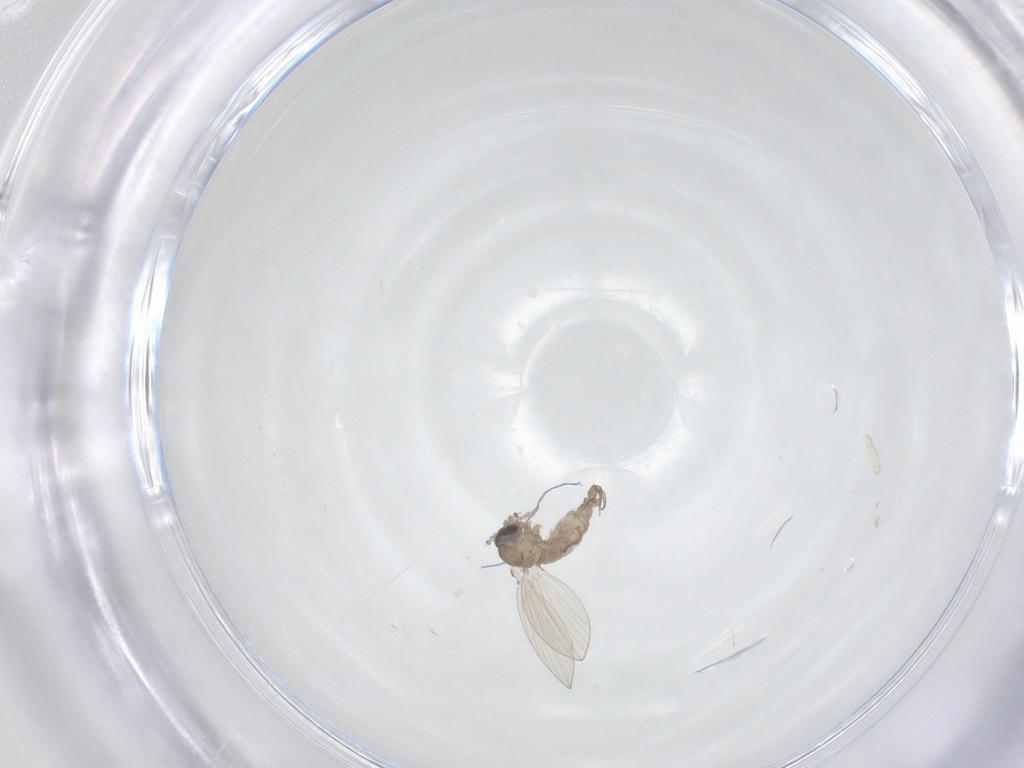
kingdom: Animalia
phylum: Arthropoda
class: Insecta
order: Diptera
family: Psychodidae
